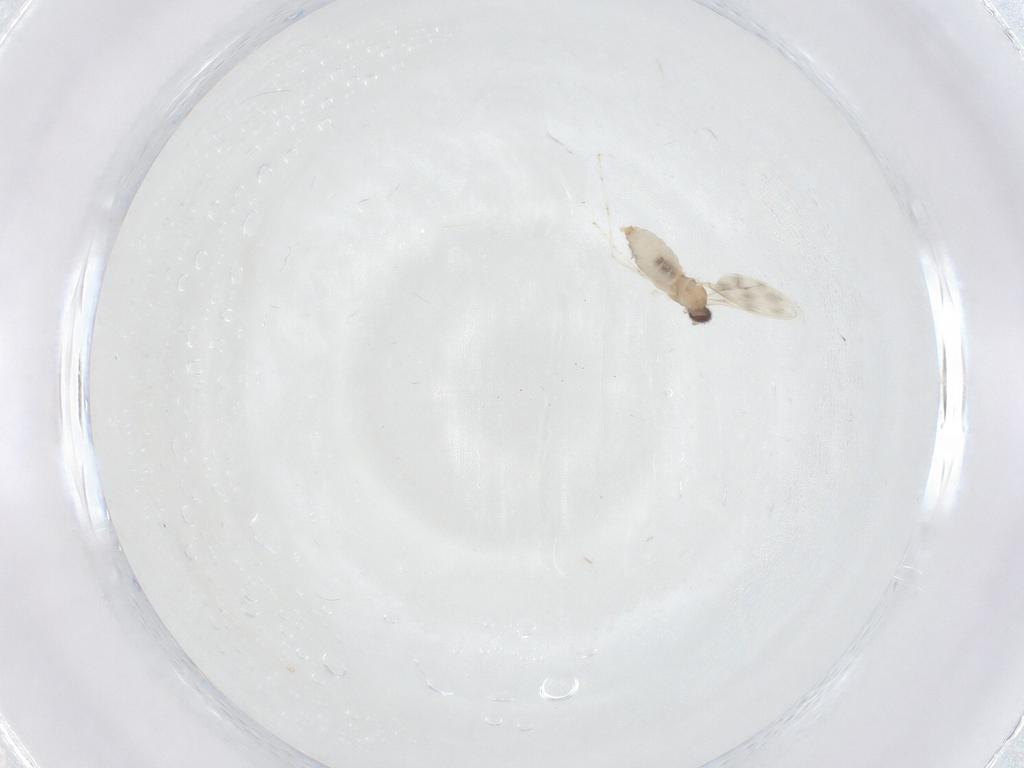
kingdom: Animalia
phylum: Arthropoda
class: Insecta
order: Diptera
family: Cecidomyiidae
